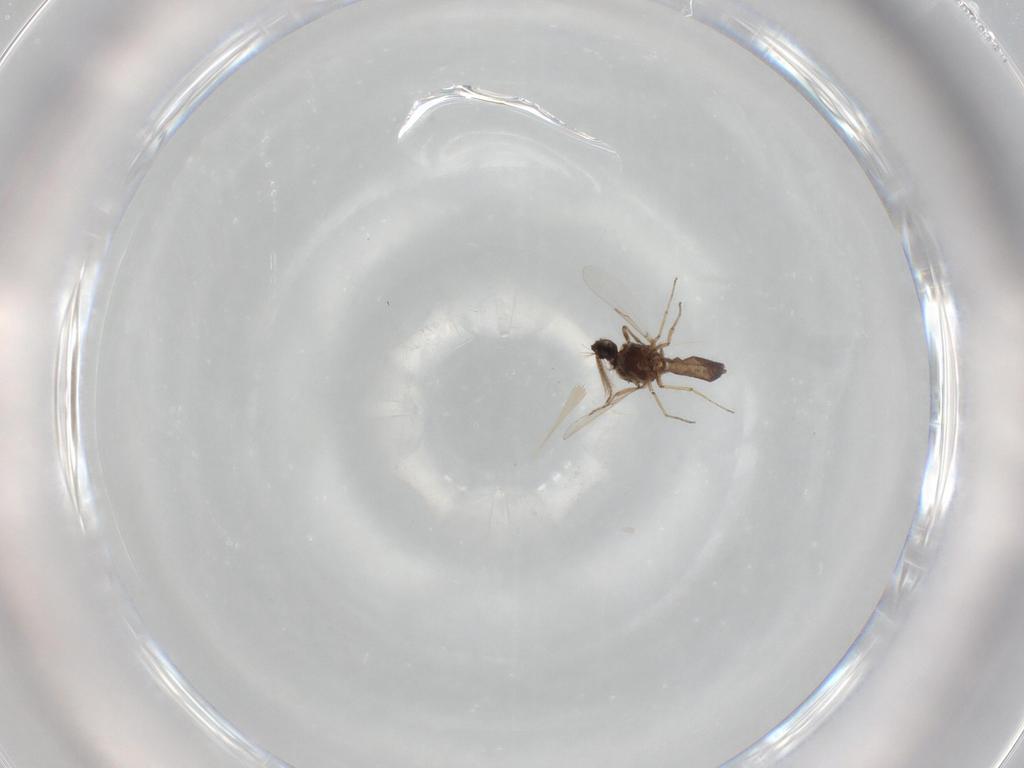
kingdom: Animalia
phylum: Arthropoda
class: Insecta
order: Diptera
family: Ceratopogonidae
